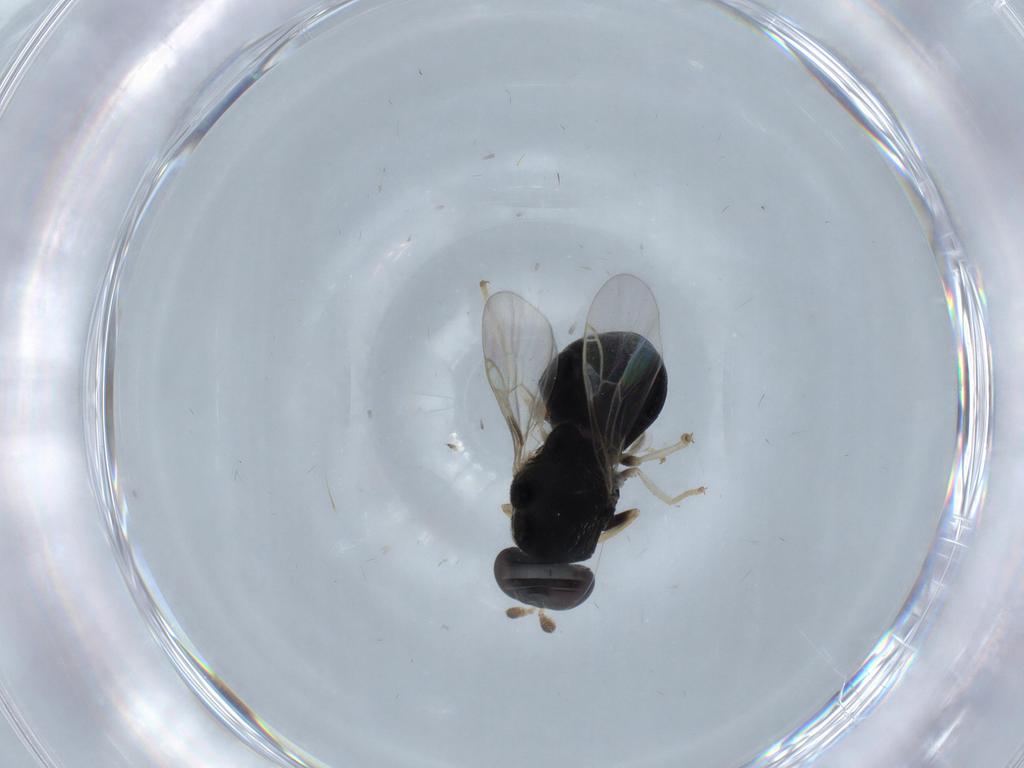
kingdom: Animalia
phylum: Arthropoda
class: Insecta
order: Diptera
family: Stratiomyidae
